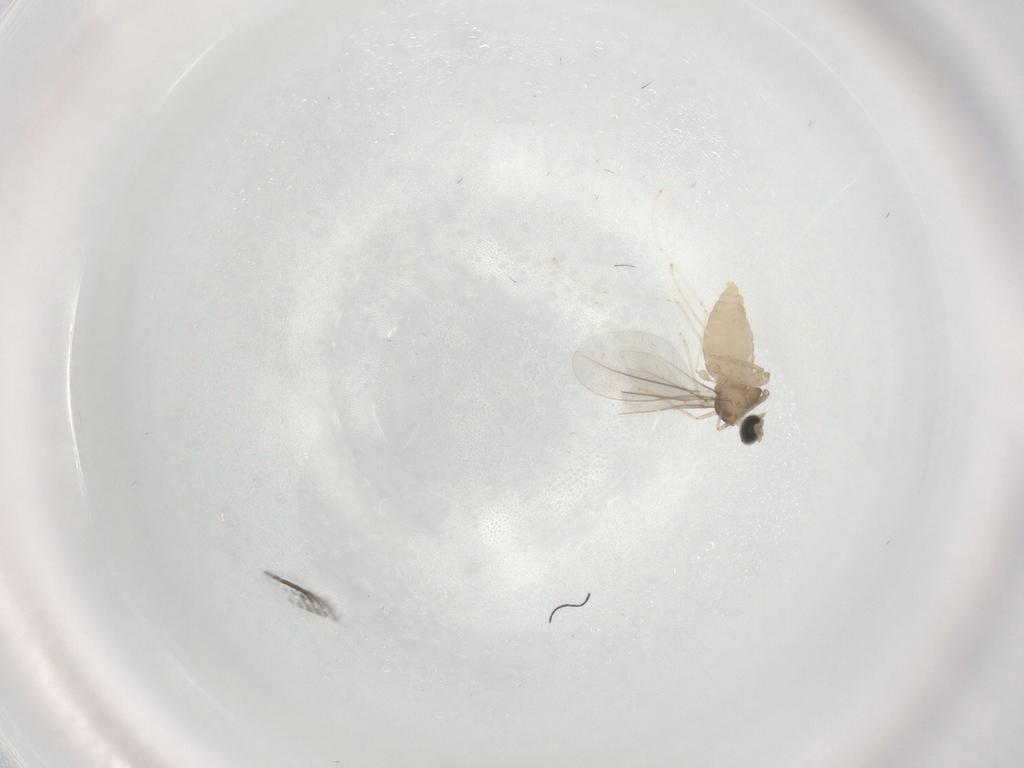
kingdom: Animalia
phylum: Arthropoda
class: Insecta
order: Diptera
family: Cecidomyiidae
